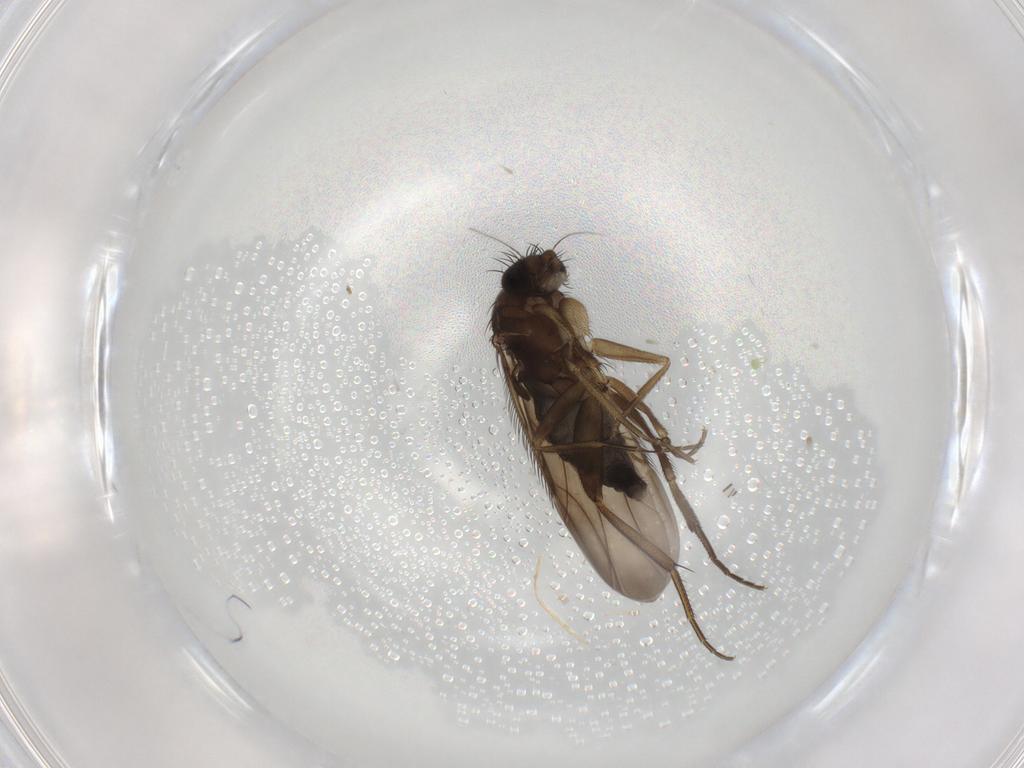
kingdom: Animalia
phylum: Arthropoda
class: Insecta
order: Diptera
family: Phoridae
